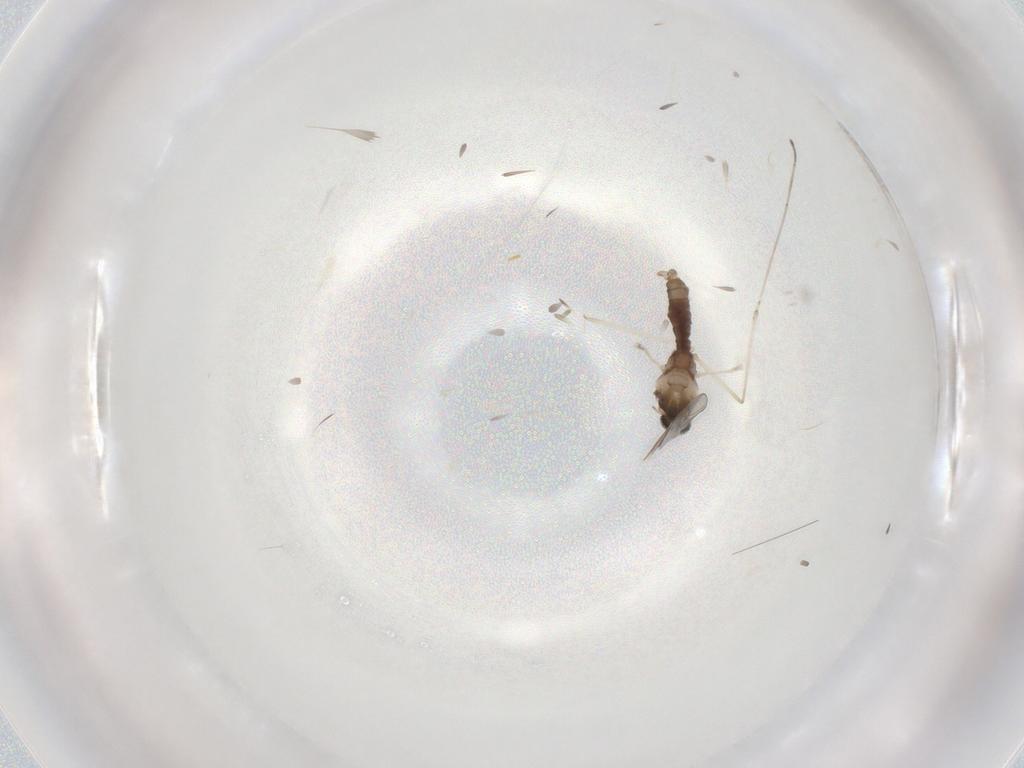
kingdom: Animalia
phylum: Arthropoda
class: Insecta
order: Diptera
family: Cecidomyiidae
